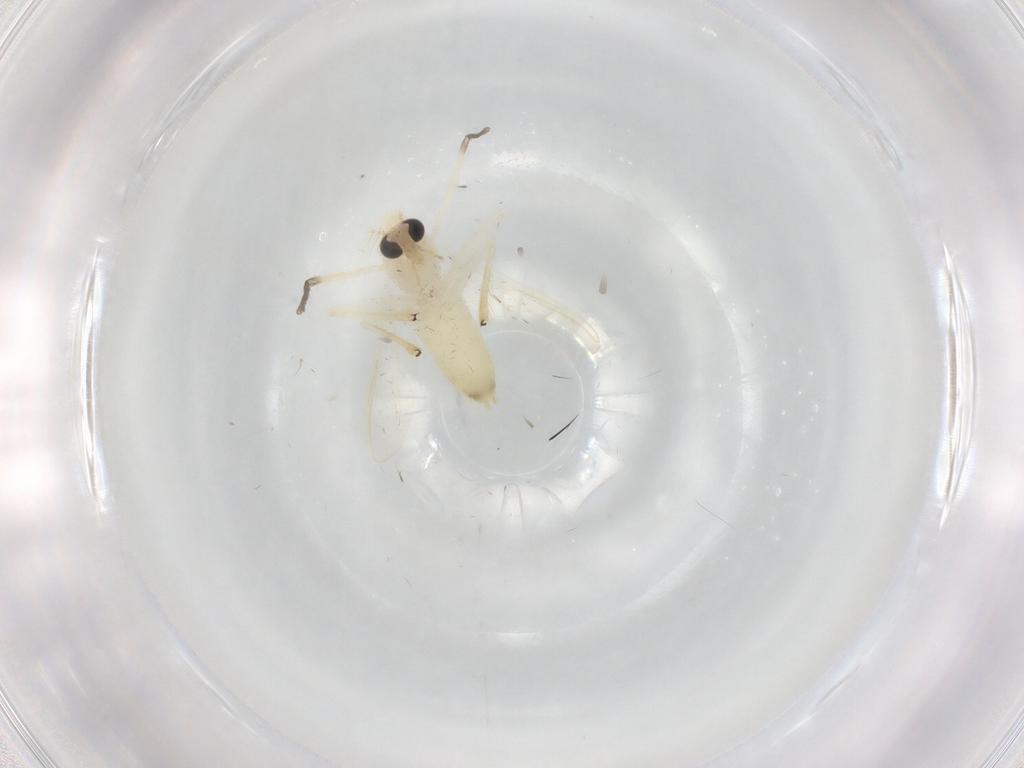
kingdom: Animalia
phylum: Arthropoda
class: Insecta
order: Diptera
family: Chironomidae
